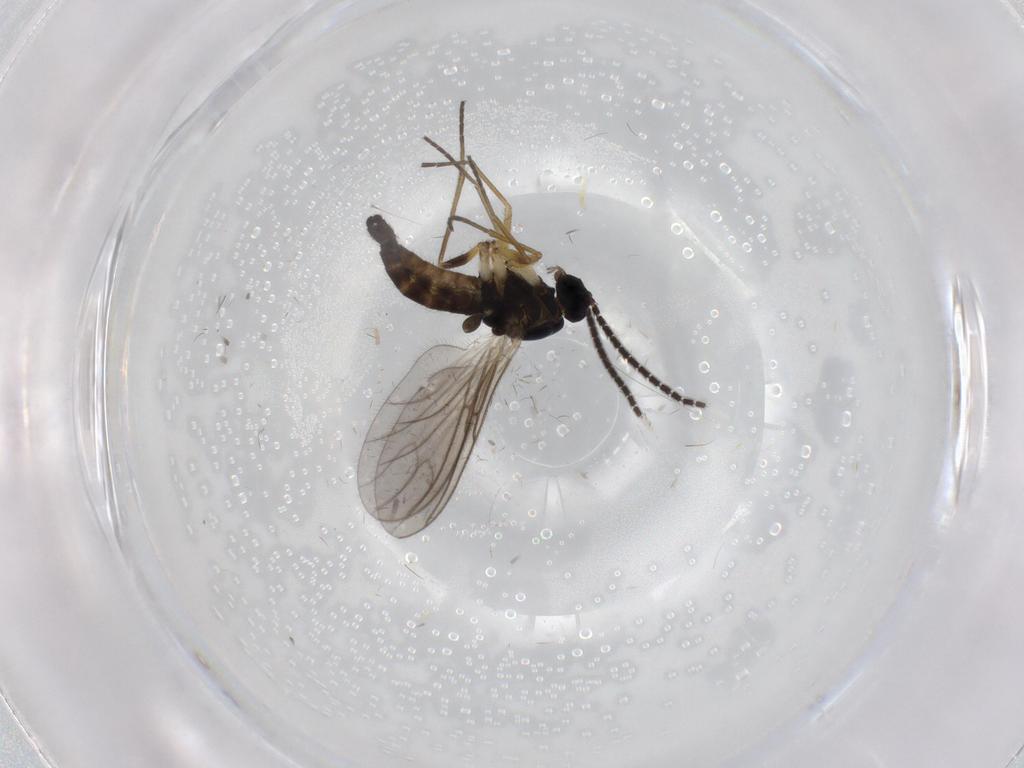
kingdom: Animalia
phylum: Arthropoda
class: Insecta
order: Diptera
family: Sciaridae
